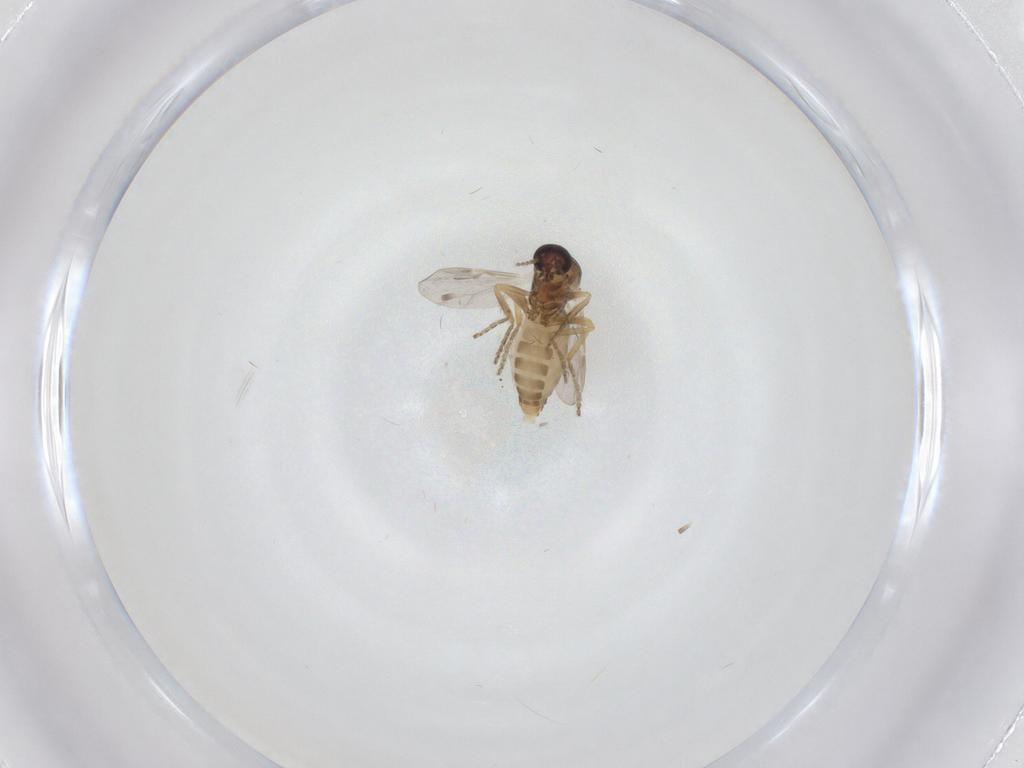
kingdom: Animalia
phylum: Arthropoda
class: Insecta
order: Diptera
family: Ceratopogonidae
